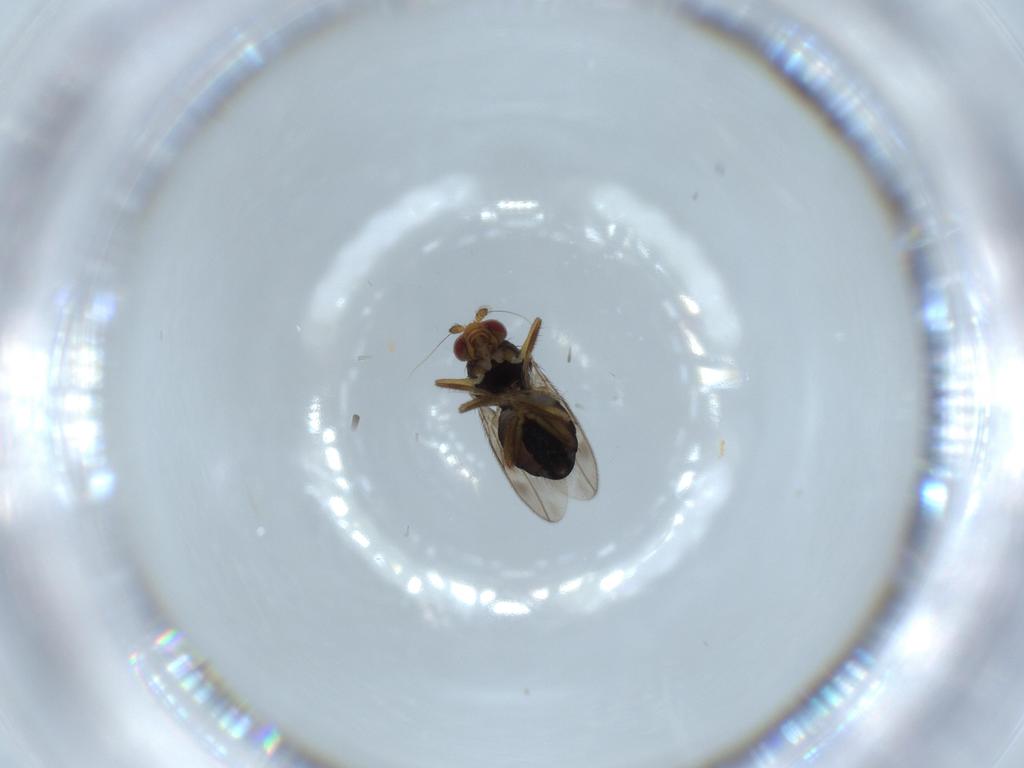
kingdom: Animalia
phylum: Arthropoda
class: Insecta
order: Diptera
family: Sphaeroceridae
